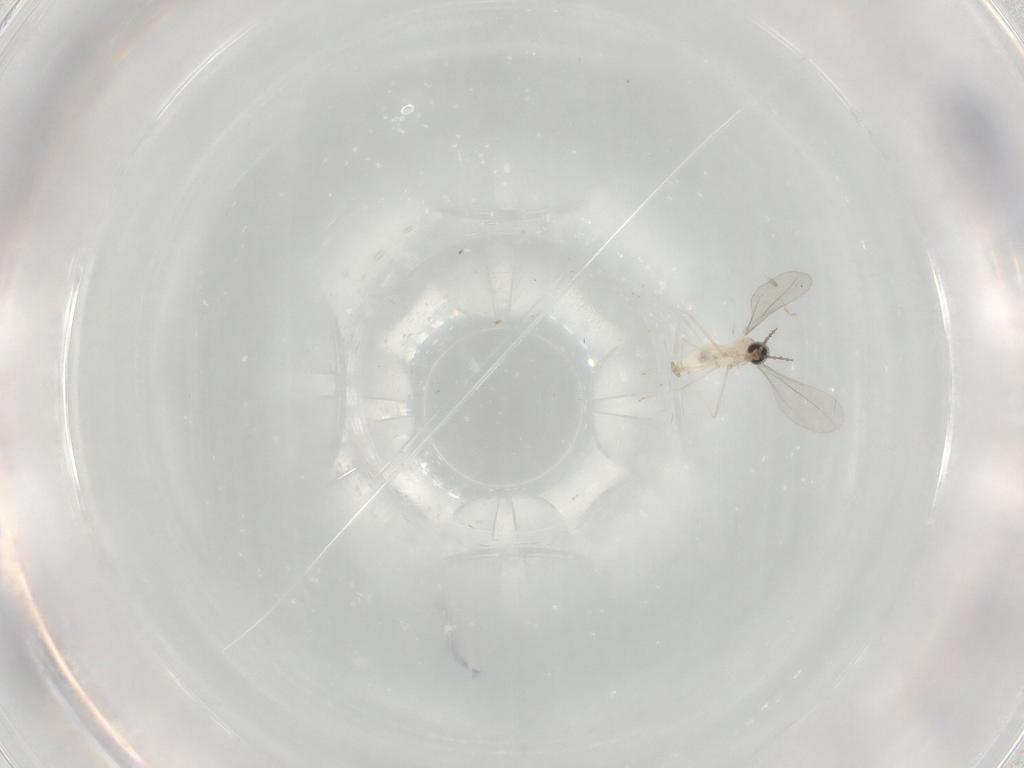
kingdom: Animalia
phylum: Arthropoda
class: Insecta
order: Diptera
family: Cecidomyiidae
